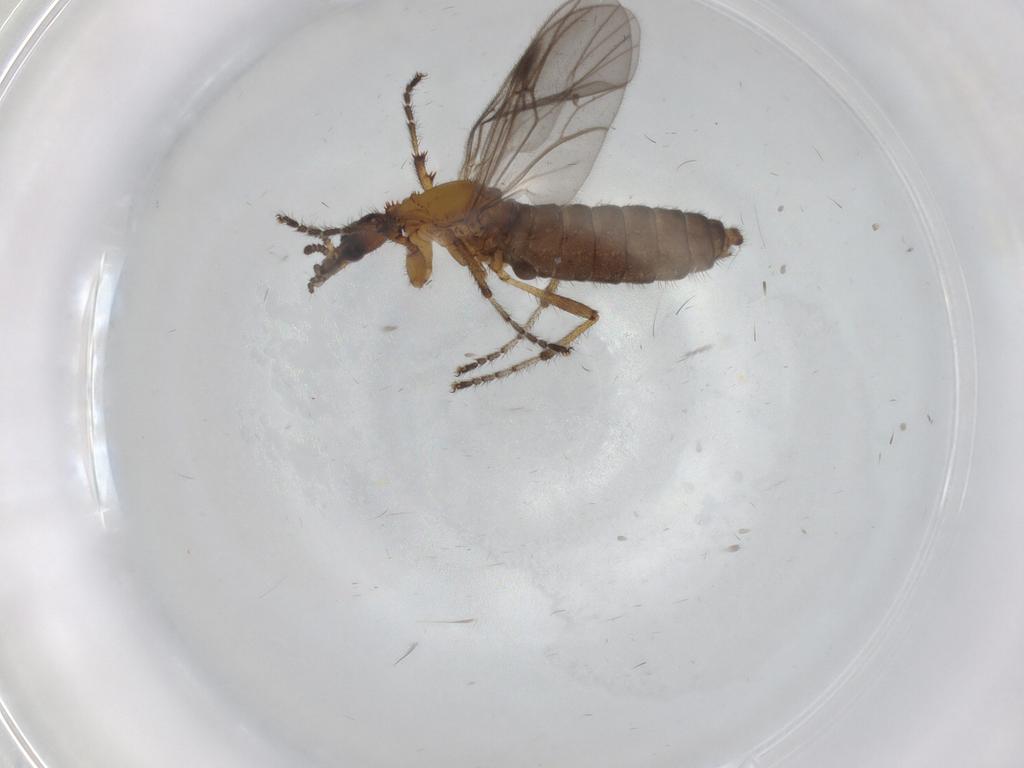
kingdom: Animalia
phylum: Arthropoda
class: Insecta
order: Diptera
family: Bibionidae
